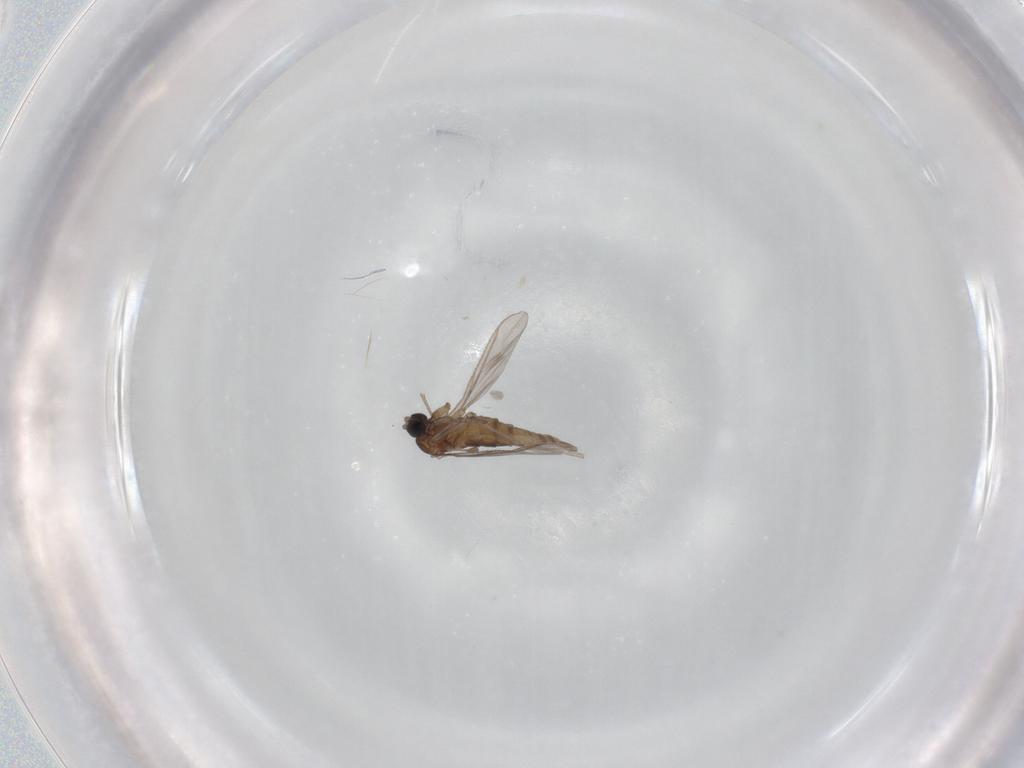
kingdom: Animalia
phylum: Arthropoda
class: Insecta
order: Diptera
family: Sciaridae
